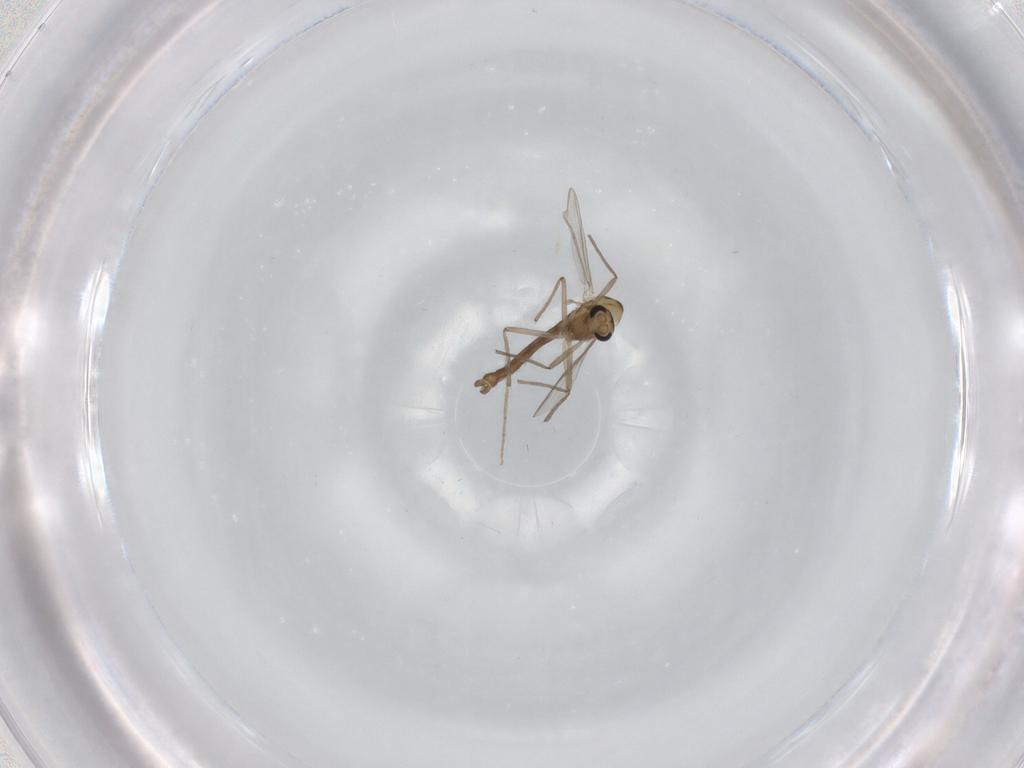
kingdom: Animalia
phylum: Arthropoda
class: Insecta
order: Diptera
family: Chironomidae
